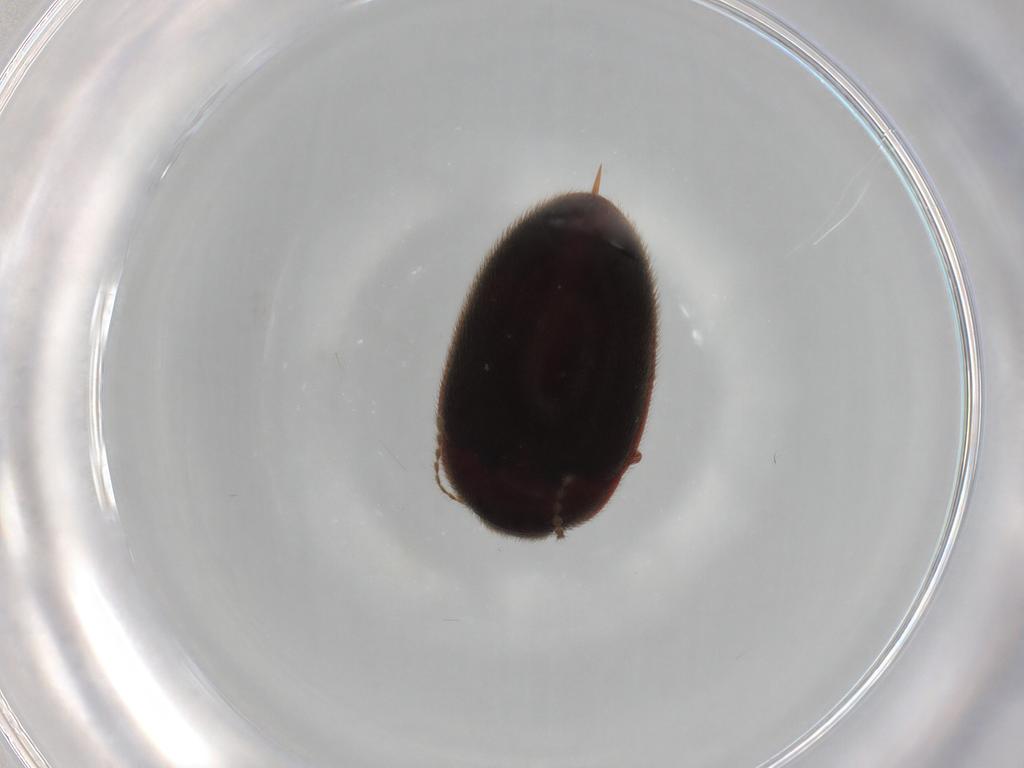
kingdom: Animalia
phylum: Arthropoda
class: Insecta
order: Coleoptera
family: Limnichidae
